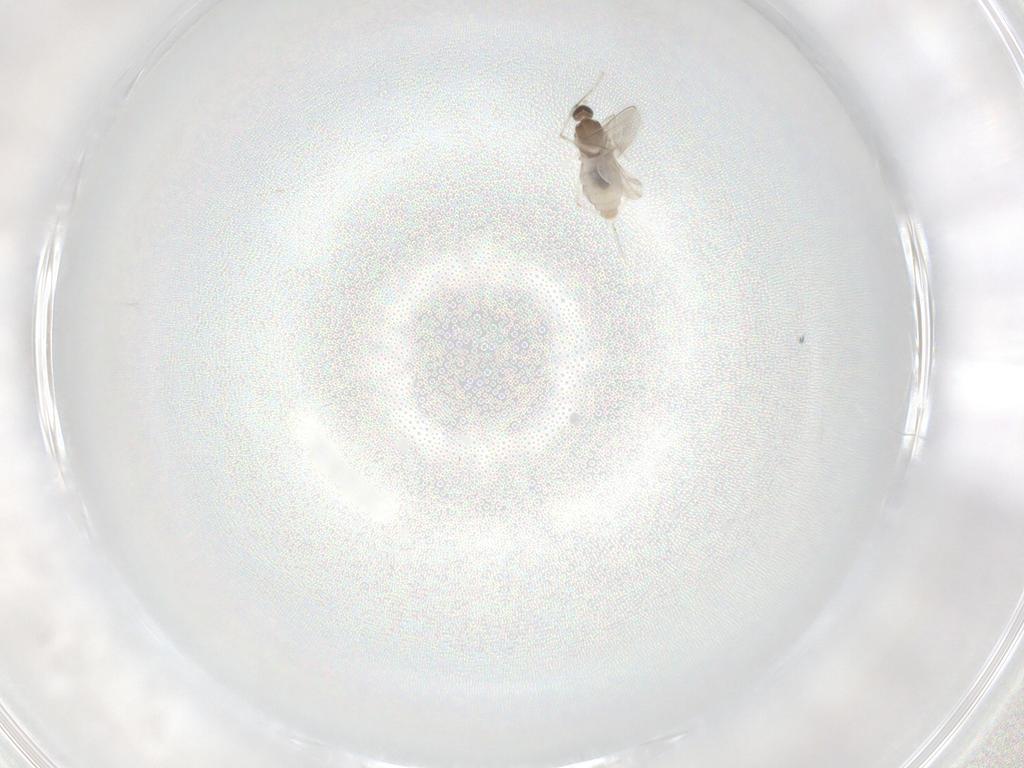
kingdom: Animalia
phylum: Arthropoda
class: Insecta
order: Diptera
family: Cecidomyiidae
